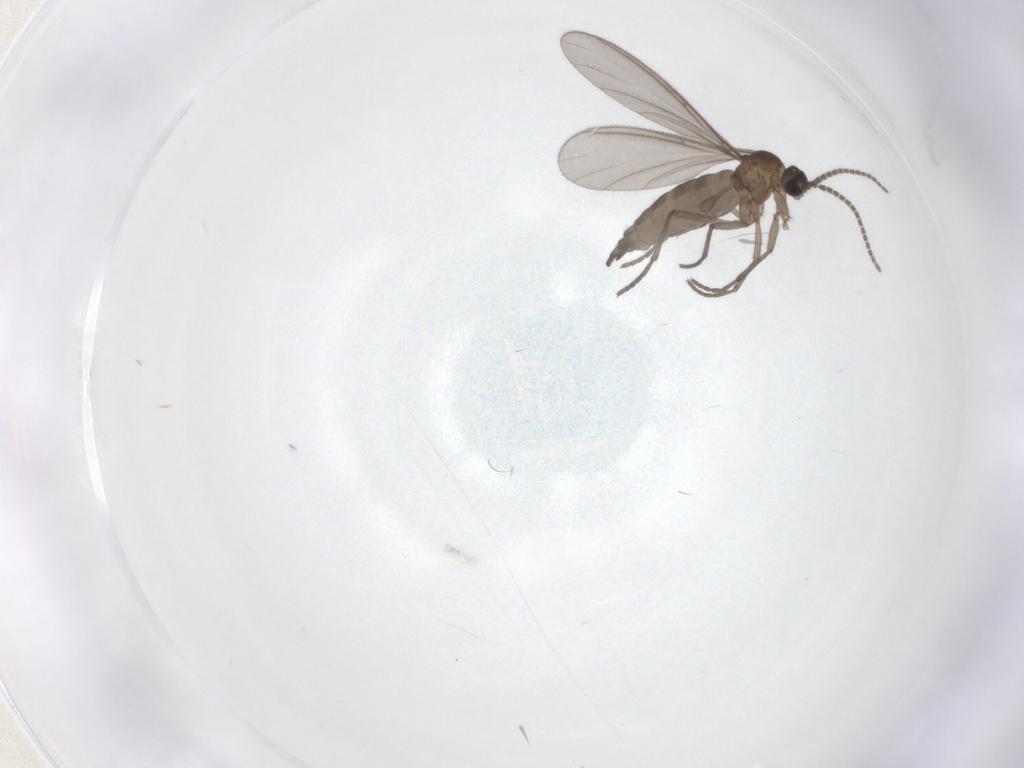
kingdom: Animalia
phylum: Arthropoda
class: Insecta
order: Diptera
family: Sciaridae
